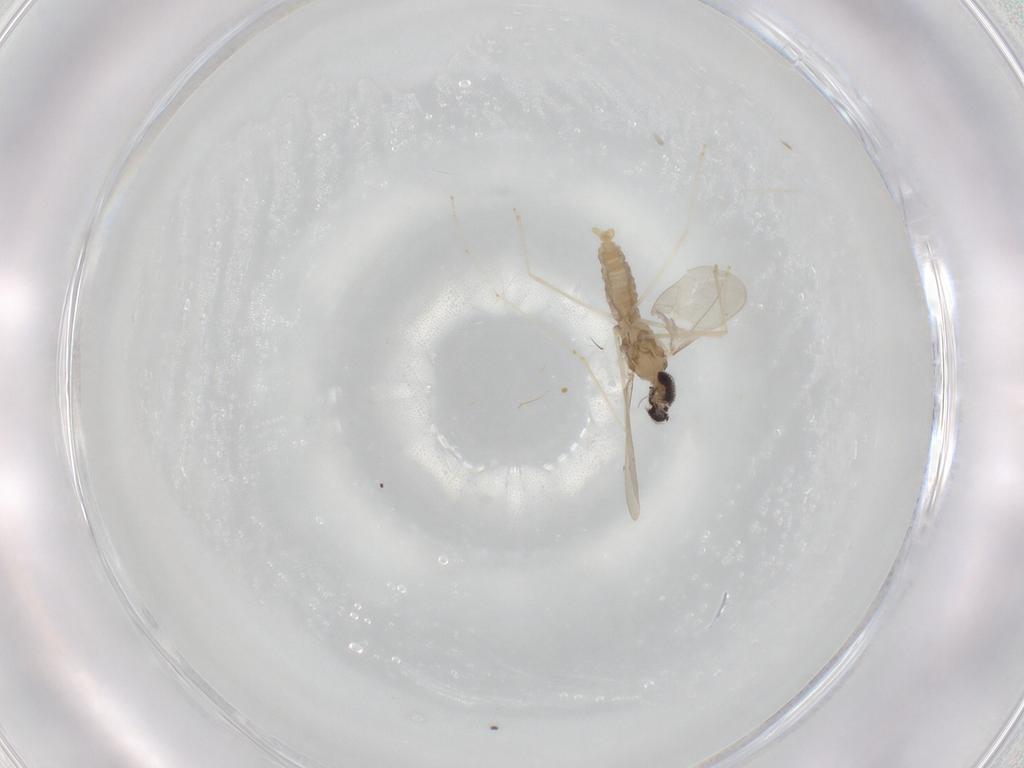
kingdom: Animalia
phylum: Arthropoda
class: Insecta
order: Diptera
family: Cecidomyiidae
